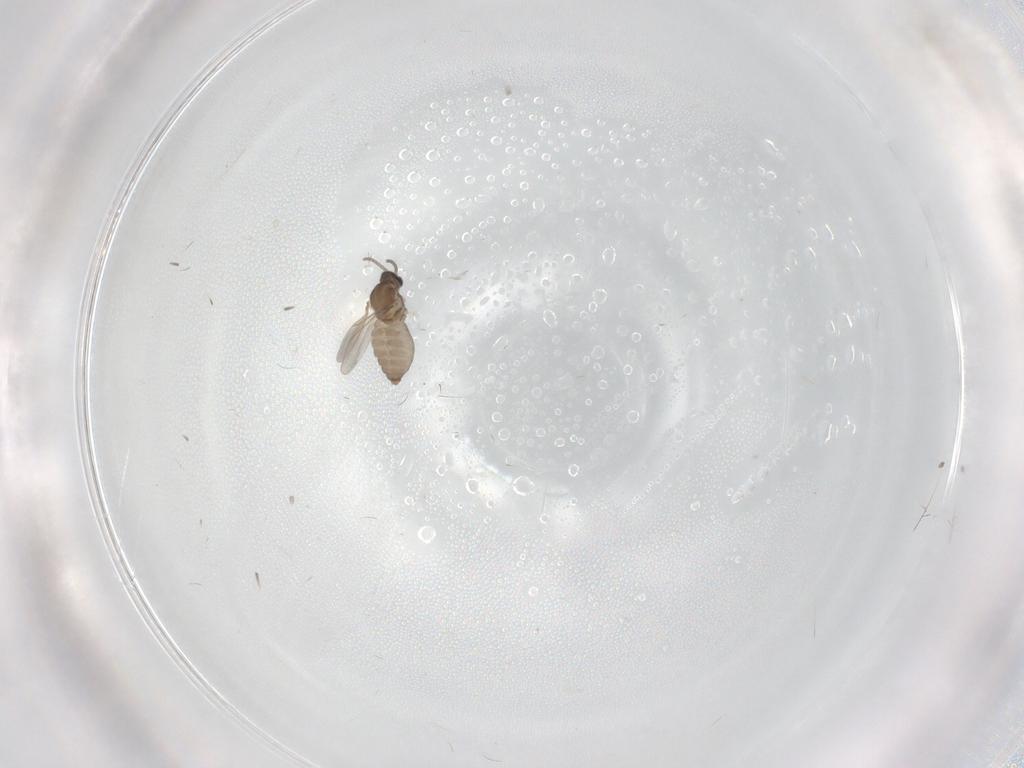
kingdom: Animalia
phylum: Arthropoda
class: Insecta
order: Diptera
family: Cecidomyiidae
